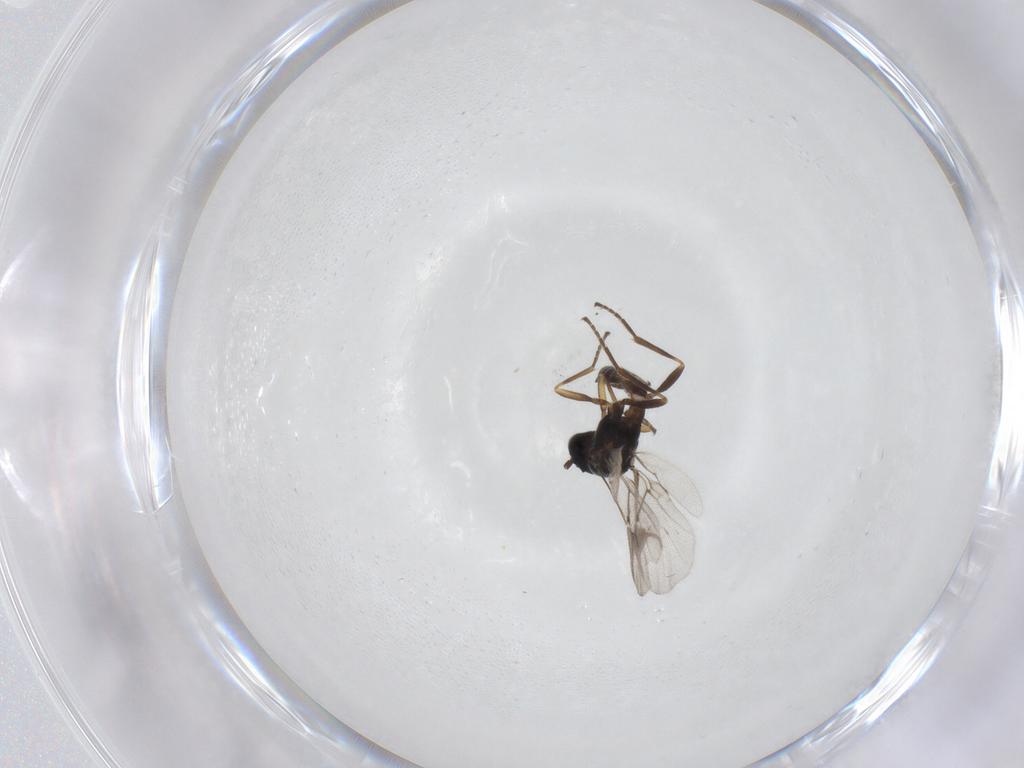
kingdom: Animalia
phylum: Arthropoda
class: Insecta
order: Hymenoptera
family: Braconidae
